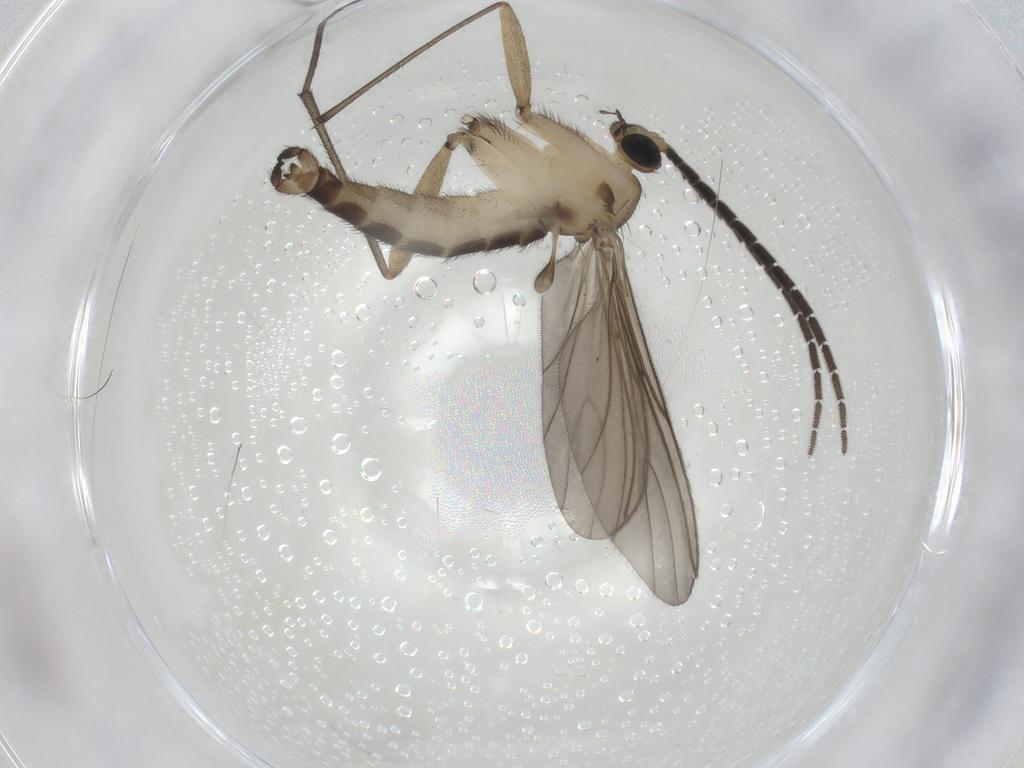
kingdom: Animalia
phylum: Arthropoda
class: Insecta
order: Diptera
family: Sciaridae
